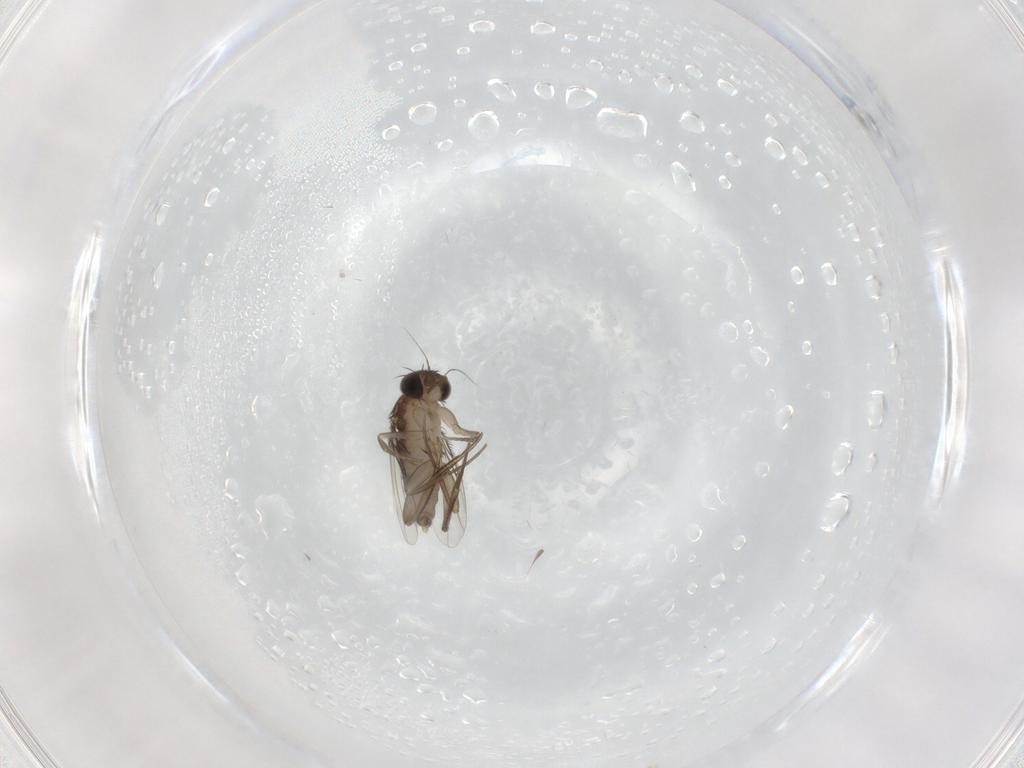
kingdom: Animalia
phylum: Arthropoda
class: Insecta
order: Diptera
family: Phoridae
